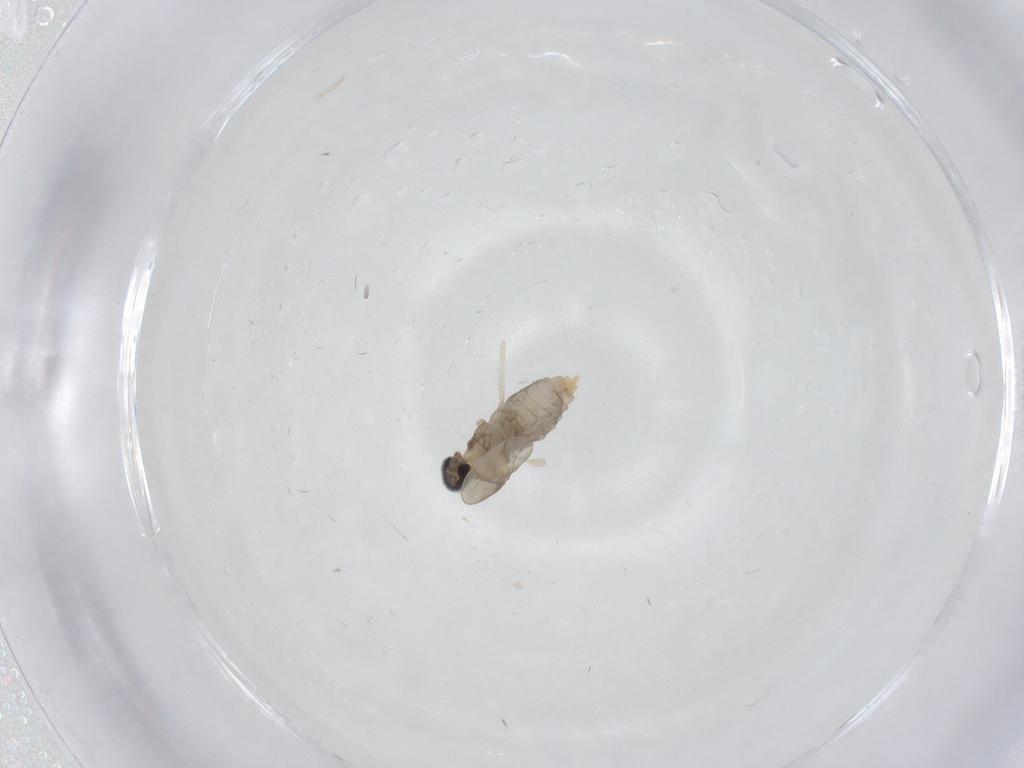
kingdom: Animalia
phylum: Arthropoda
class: Insecta
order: Diptera
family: Cecidomyiidae
